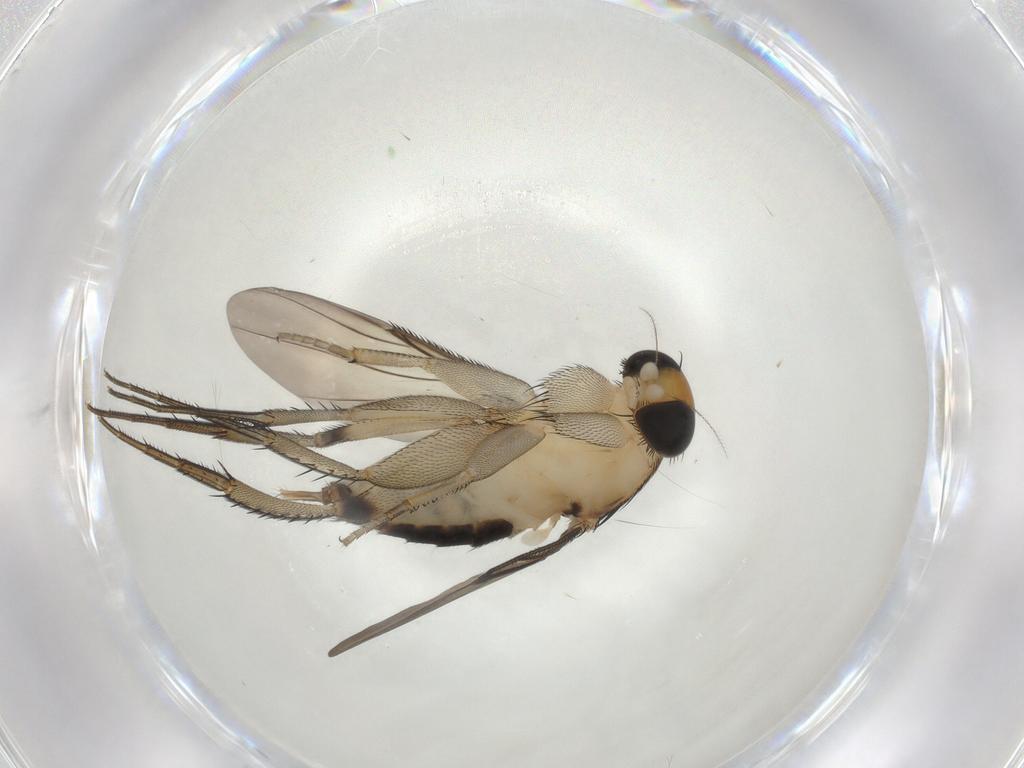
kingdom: Animalia
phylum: Arthropoda
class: Insecta
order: Diptera
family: Phoridae
